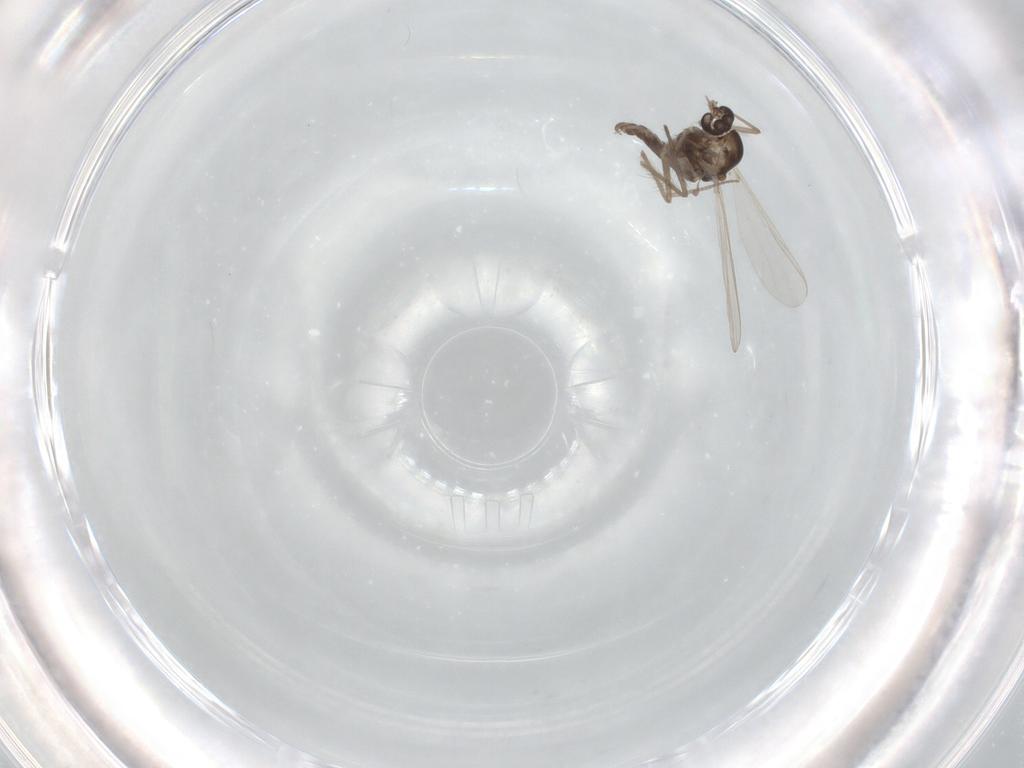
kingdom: Animalia
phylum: Arthropoda
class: Insecta
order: Diptera
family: Chironomidae
